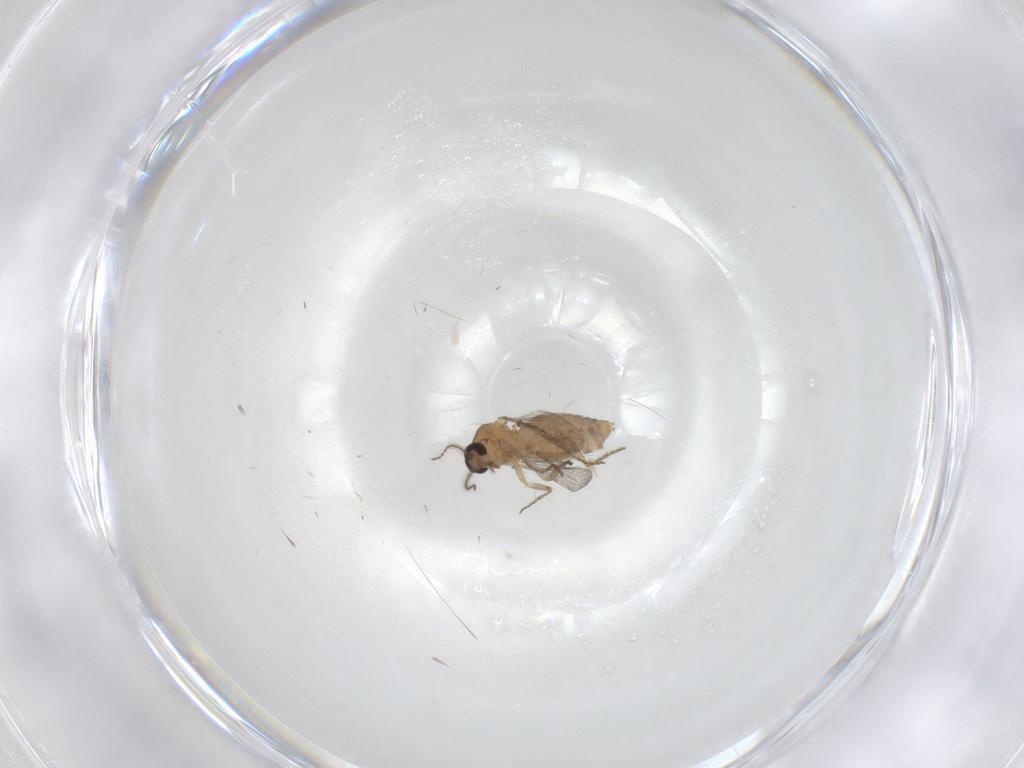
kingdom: Animalia
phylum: Arthropoda
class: Insecta
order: Diptera
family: Ceratopogonidae
